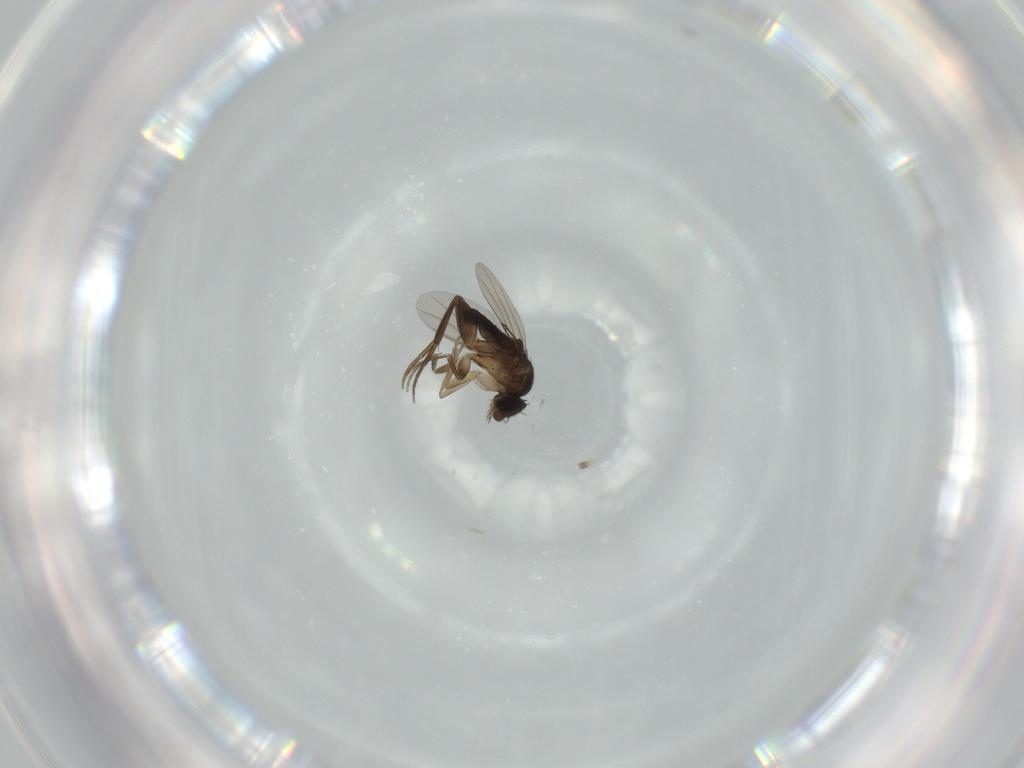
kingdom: Animalia
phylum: Arthropoda
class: Insecta
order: Diptera
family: Phoridae
